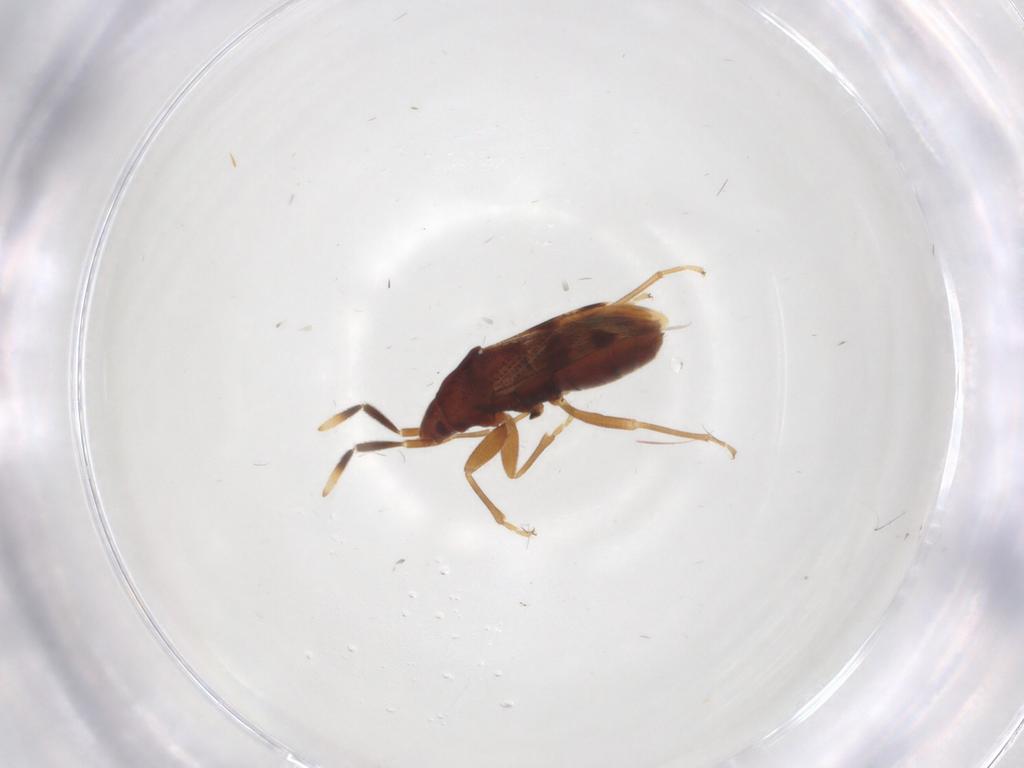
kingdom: Animalia
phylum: Arthropoda
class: Insecta
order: Hemiptera
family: Rhyparochromidae
